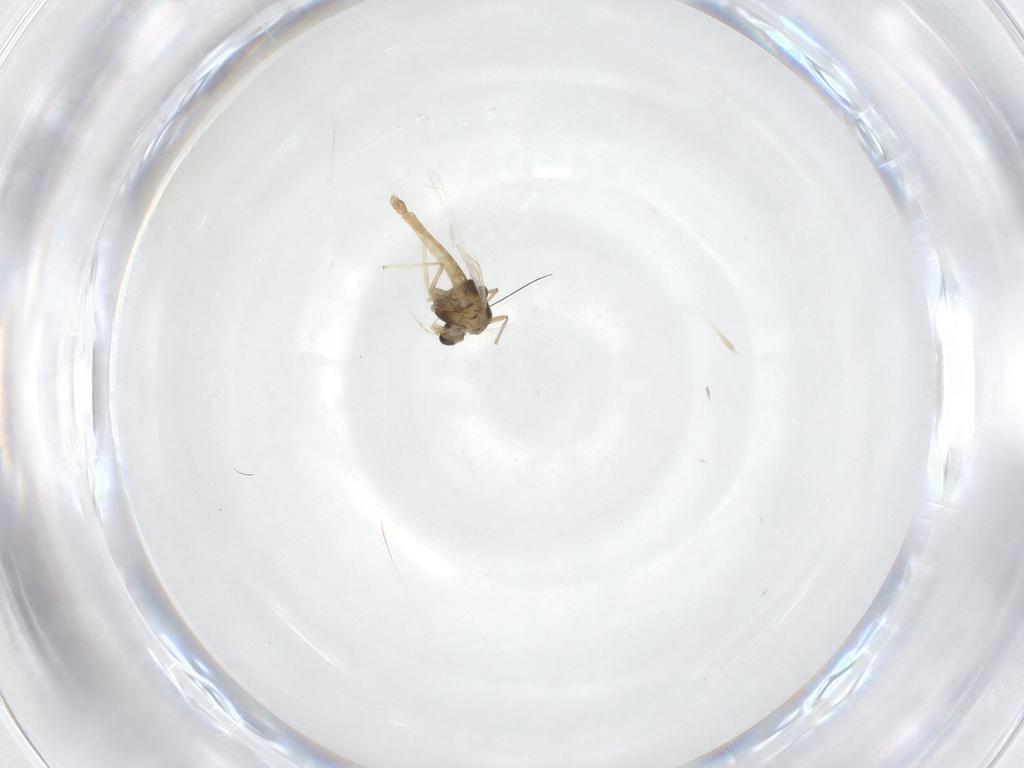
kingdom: Animalia
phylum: Arthropoda
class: Insecta
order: Diptera
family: Chironomidae
